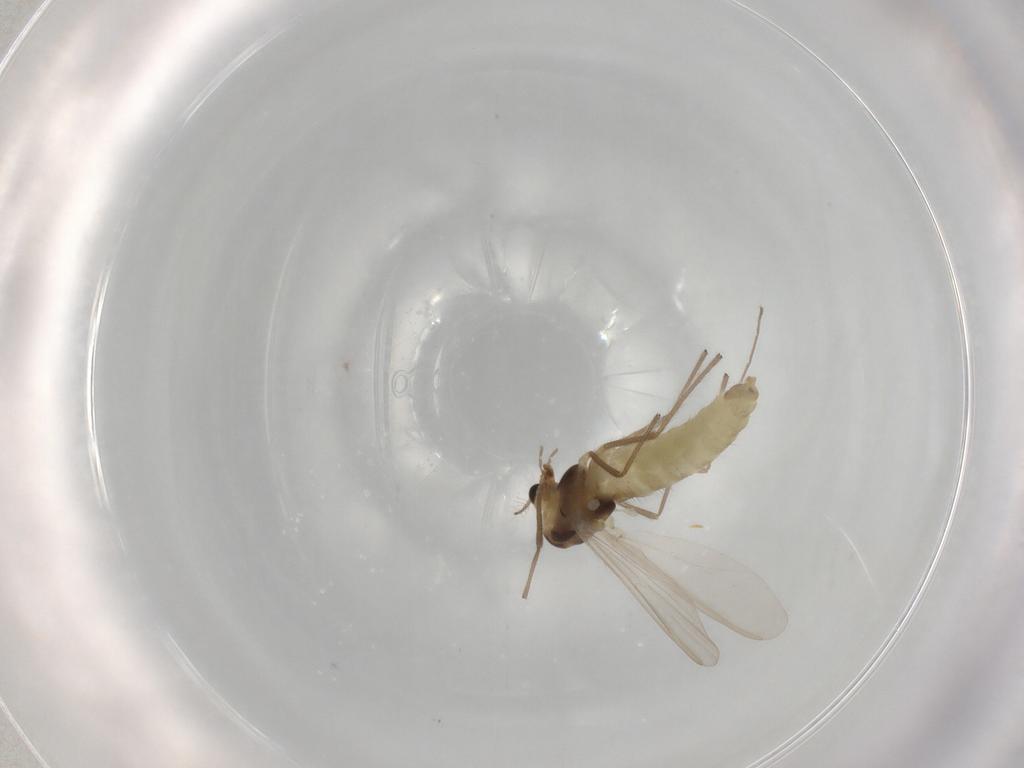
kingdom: Animalia
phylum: Arthropoda
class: Insecta
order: Diptera
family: Chironomidae
